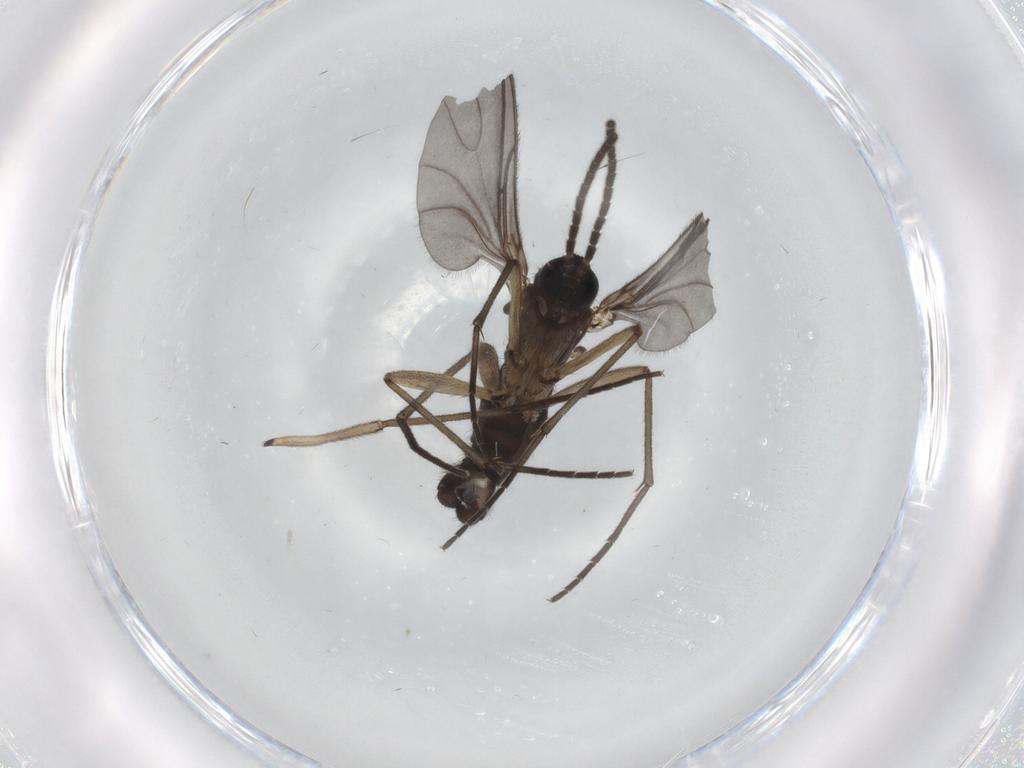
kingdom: Animalia
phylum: Arthropoda
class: Insecta
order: Diptera
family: Sciaridae
